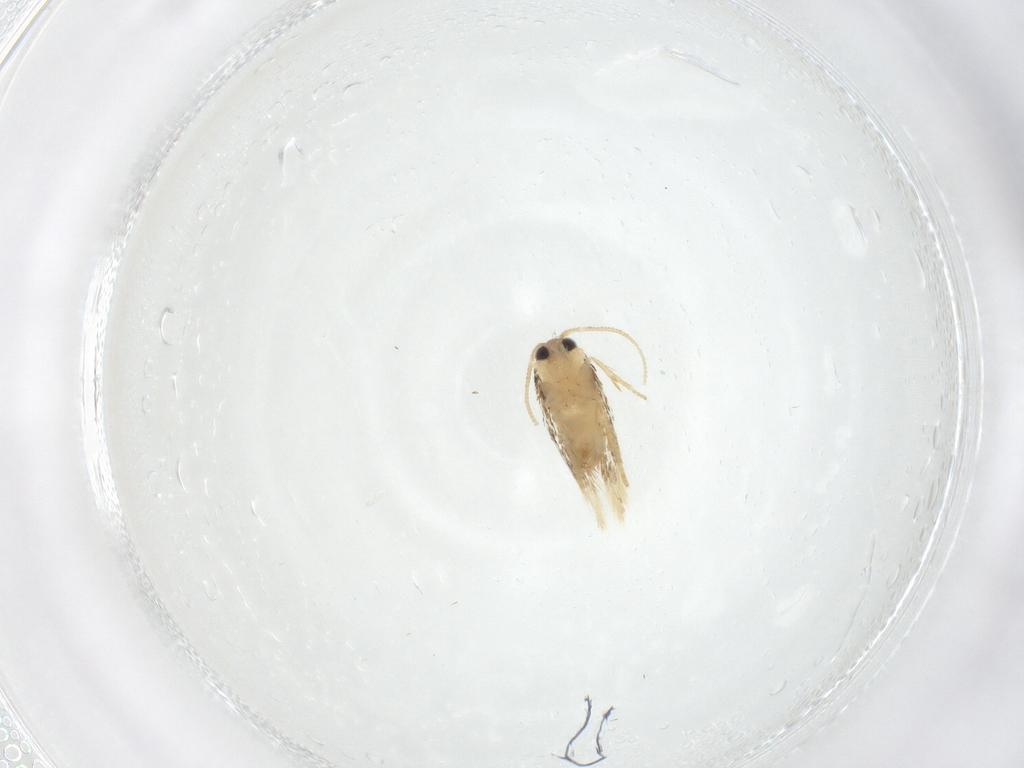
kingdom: Animalia
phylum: Arthropoda
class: Insecta
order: Lepidoptera
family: Nepticulidae
